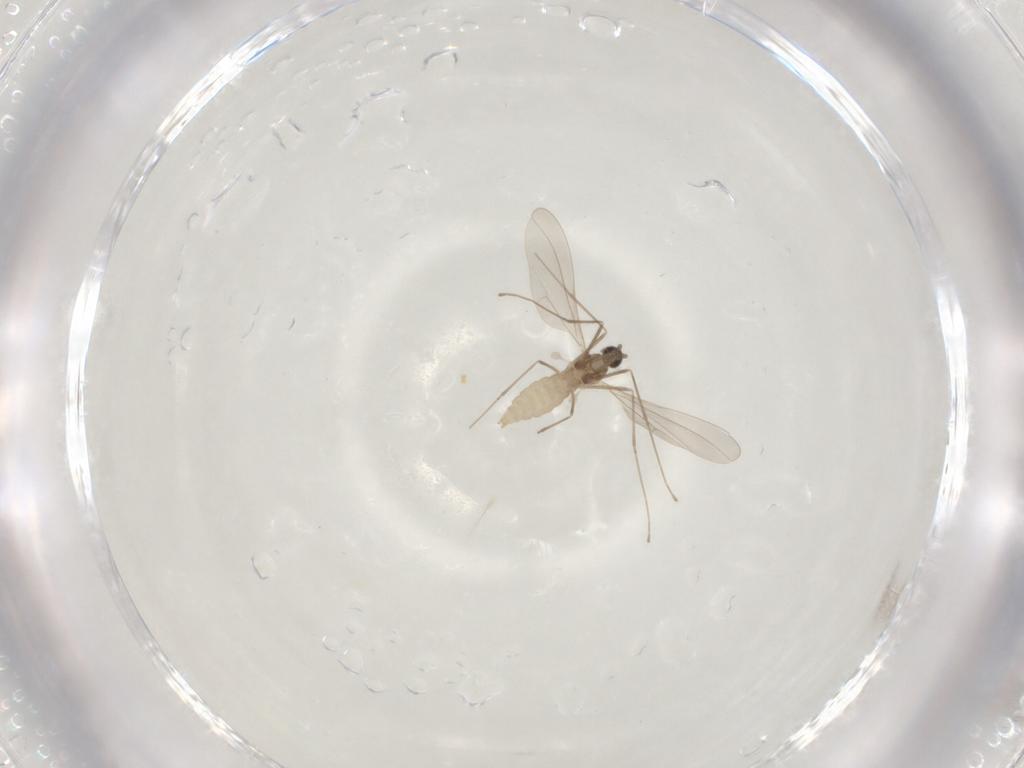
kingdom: Animalia
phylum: Arthropoda
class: Insecta
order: Diptera
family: Cecidomyiidae
